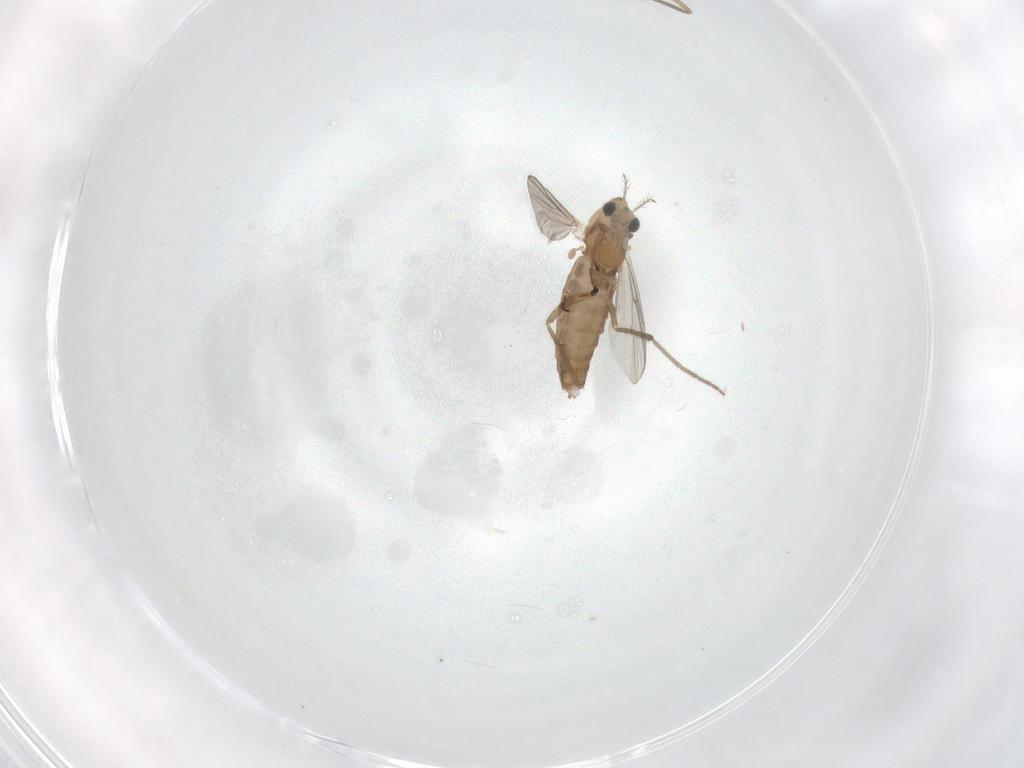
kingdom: Animalia
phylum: Arthropoda
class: Insecta
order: Diptera
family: Chironomidae
